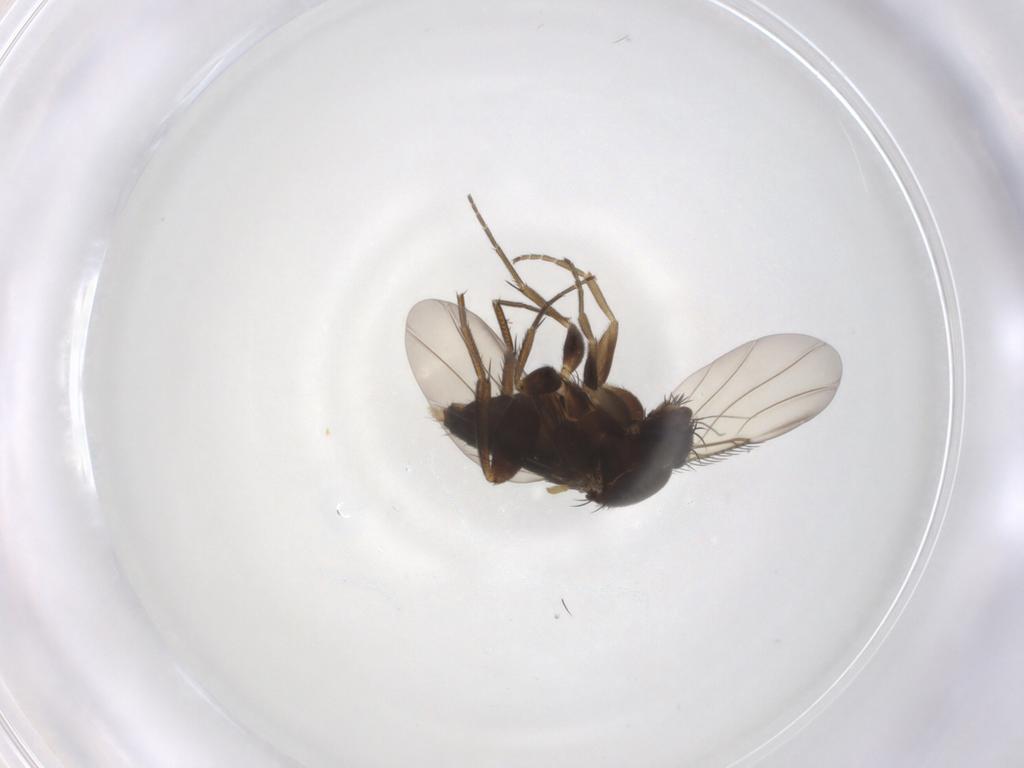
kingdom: Animalia
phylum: Arthropoda
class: Insecta
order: Diptera
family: Phoridae
